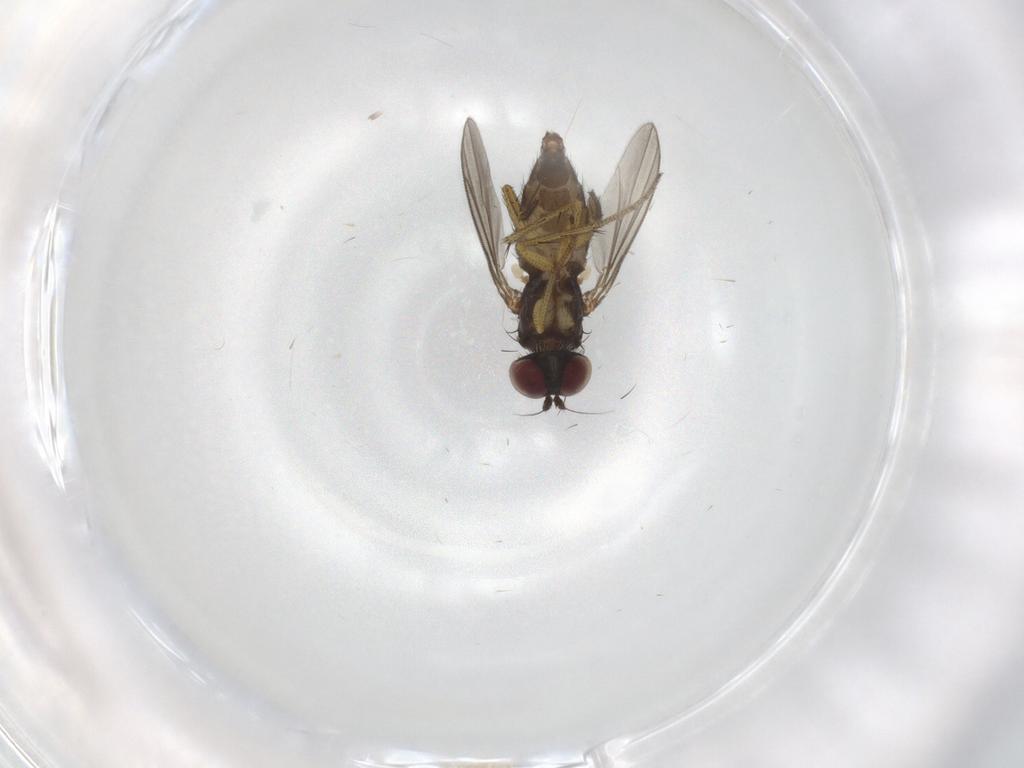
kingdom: Animalia
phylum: Arthropoda
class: Insecta
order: Diptera
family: Dolichopodidae
